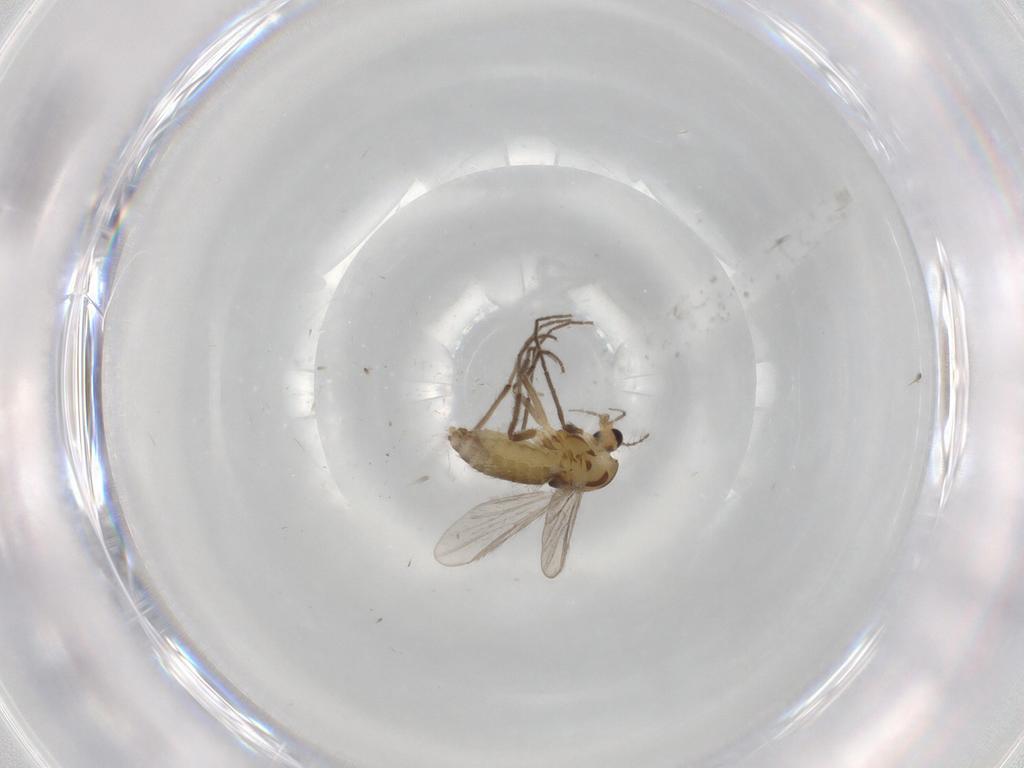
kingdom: Animalia
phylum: Arthropoda
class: Insecta
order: Diptera
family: Chironomidae
